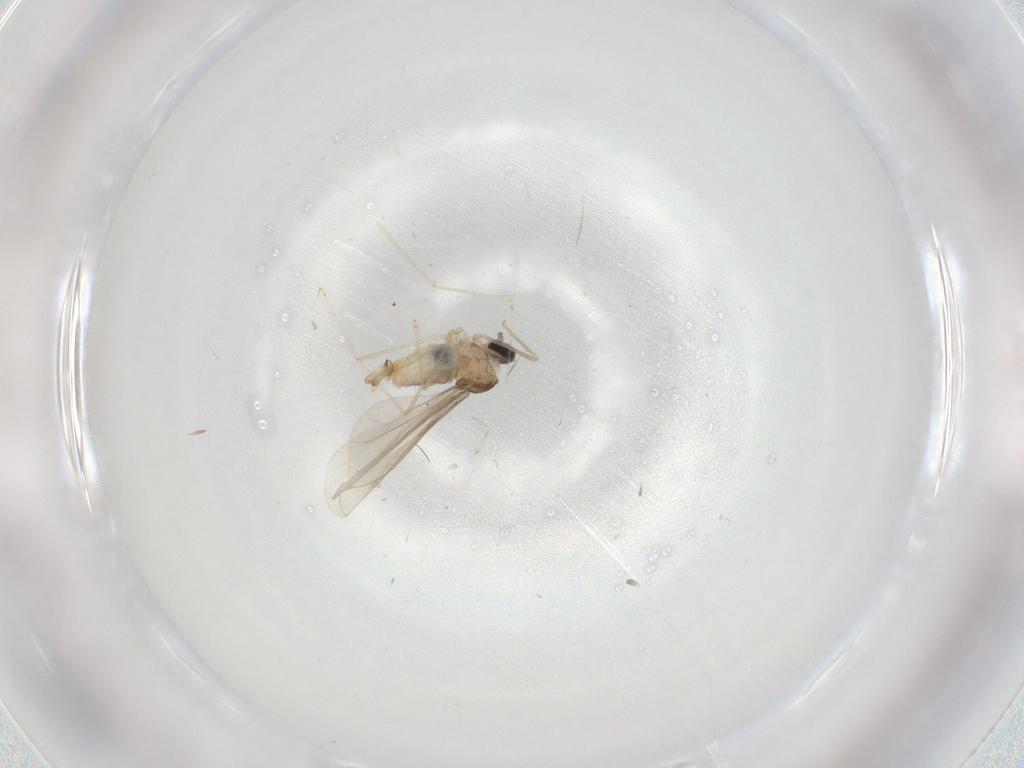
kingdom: Animalia
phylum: Arthropoda
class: Insecta
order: Diptera
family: Cecidomyiidae
